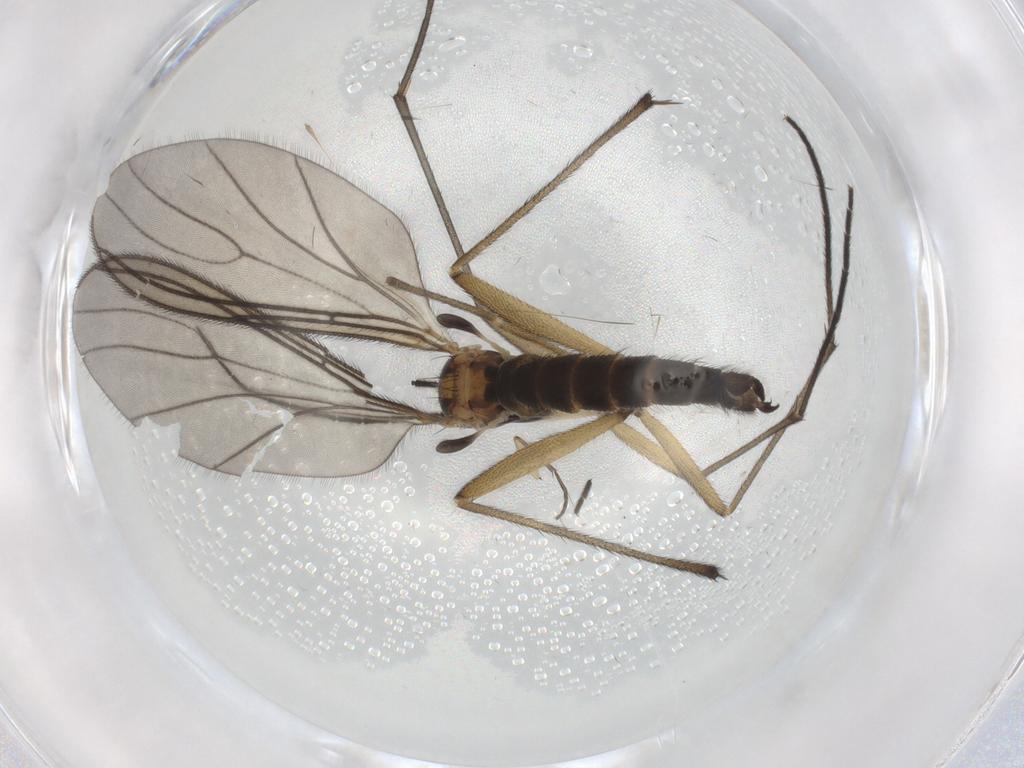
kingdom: Animalia
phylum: Arthropoda
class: Insecta
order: Diptera
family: Sciaridae
